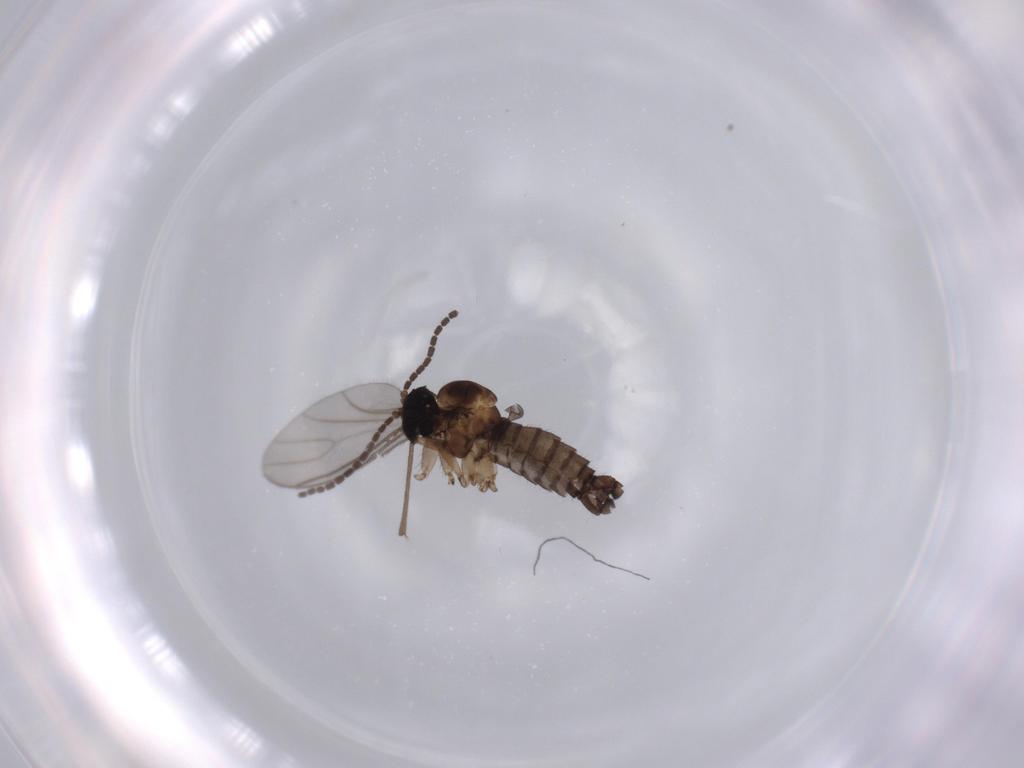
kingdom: Animalia
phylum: Arthropoda
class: Insecta
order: Diptera
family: Sciaridae
